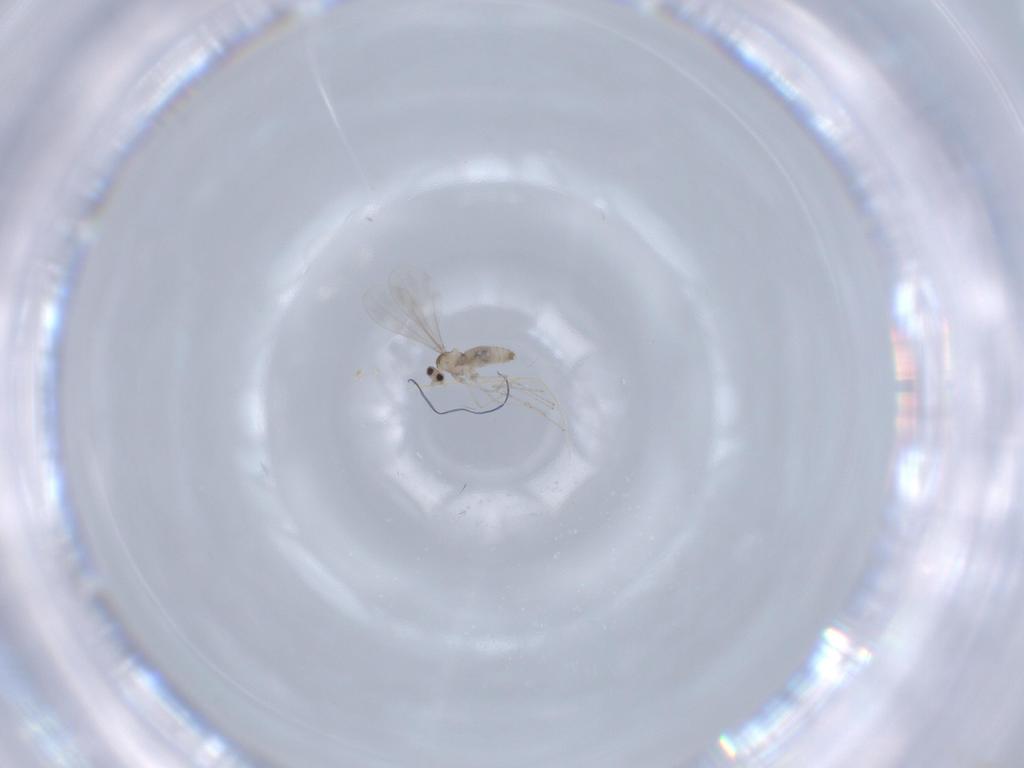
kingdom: Animalia
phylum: Arthropoda
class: Insecta
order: Diptera
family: Cecidomyiidae
